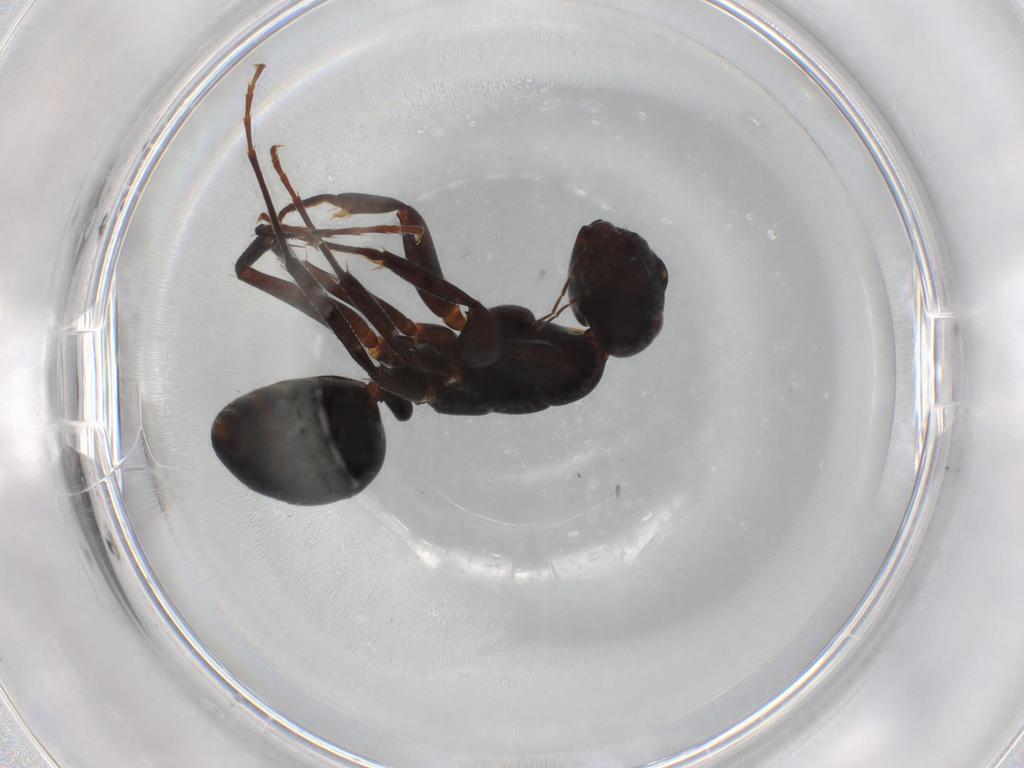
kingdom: Animalia
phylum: Arthropoda
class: Insecta
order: Hymenoptera
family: Formicidae
